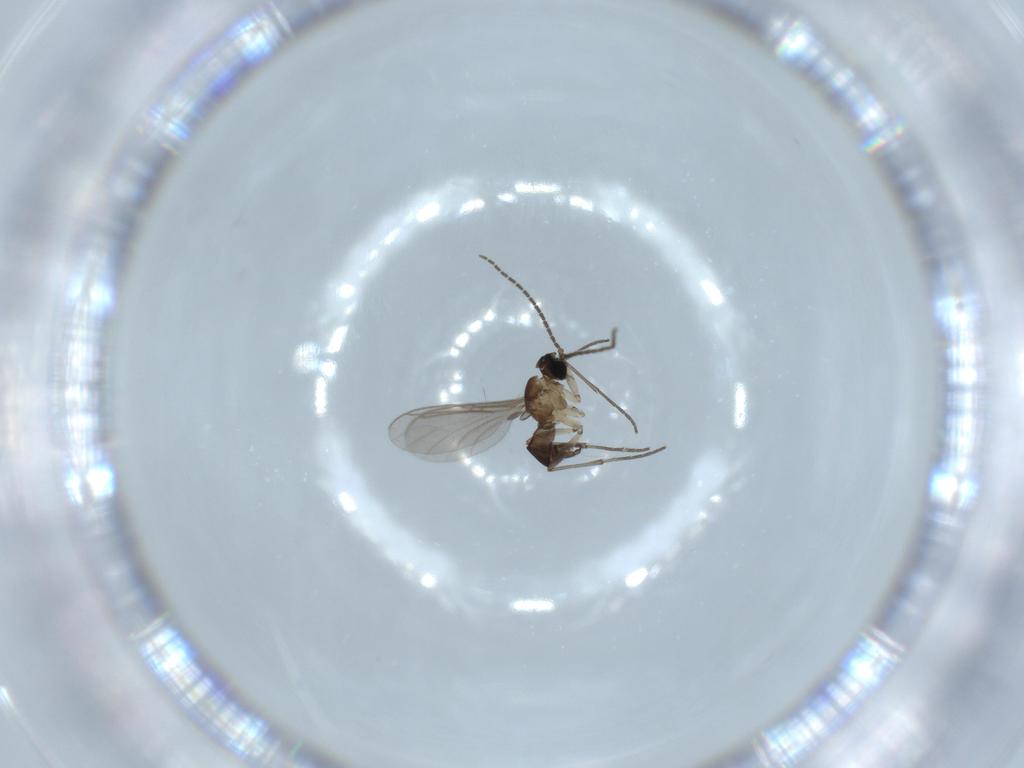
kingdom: Animalia
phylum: Arthropoda
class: Insecta
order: Diptera
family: Sciaridae
